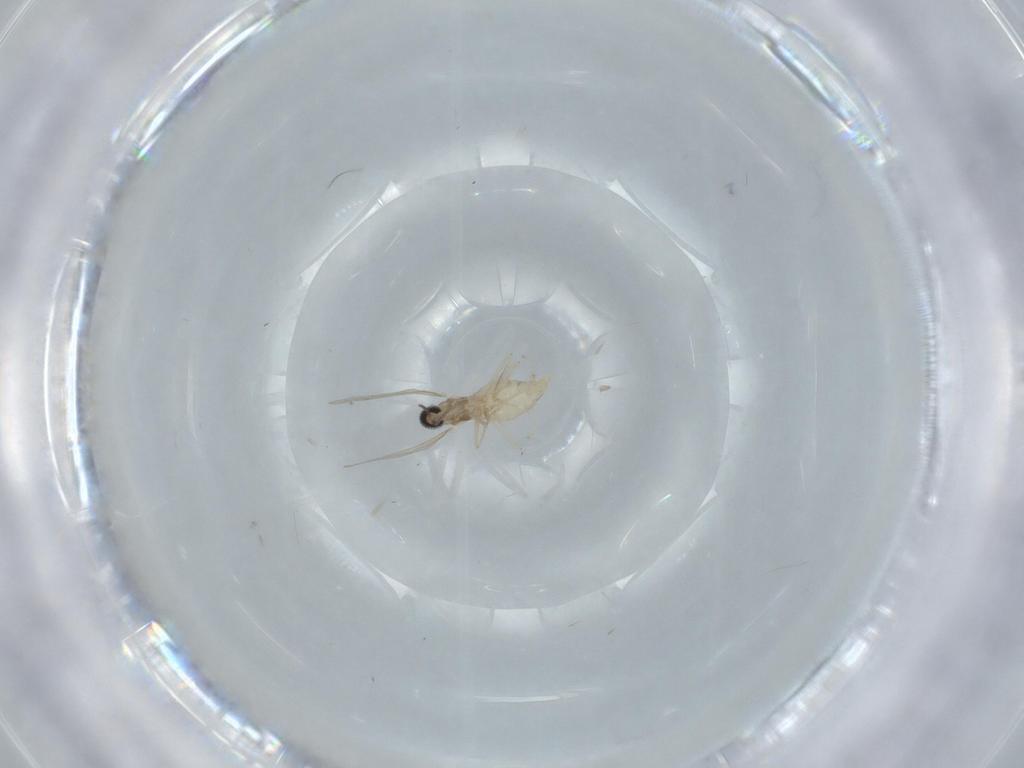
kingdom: Animalia
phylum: Arthropoda
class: Insecta
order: Diptera
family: Cecidomyiidae
